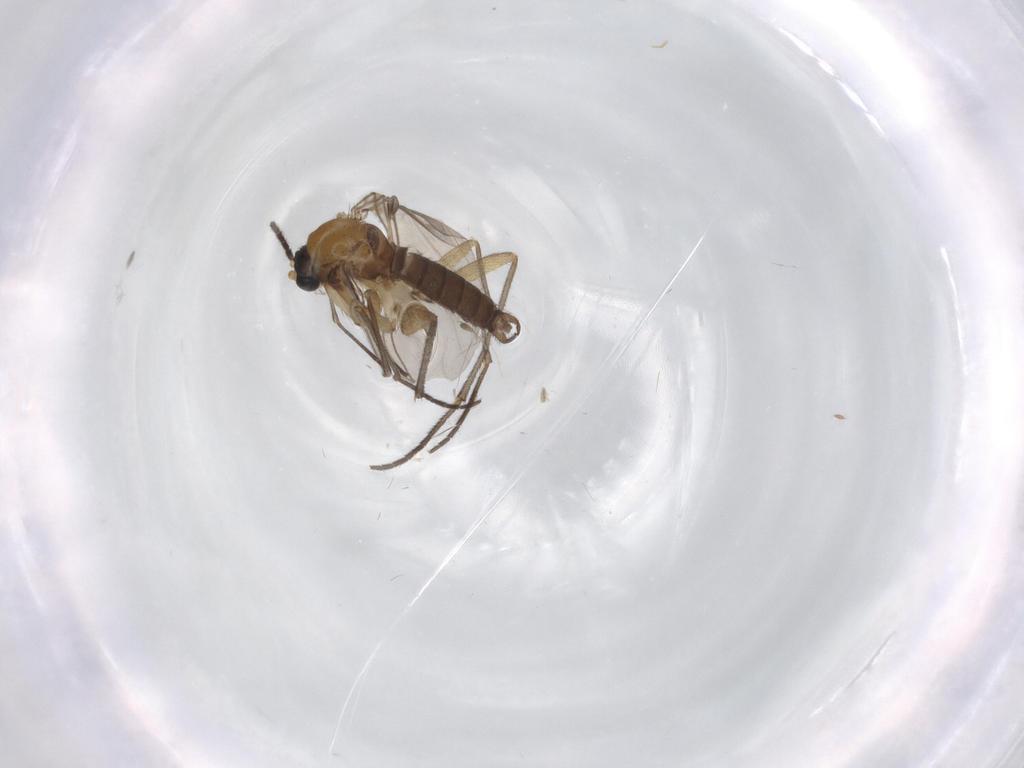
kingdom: Animalia
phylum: Arthropoda
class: Insecta
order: Diptera
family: Sciaridae
